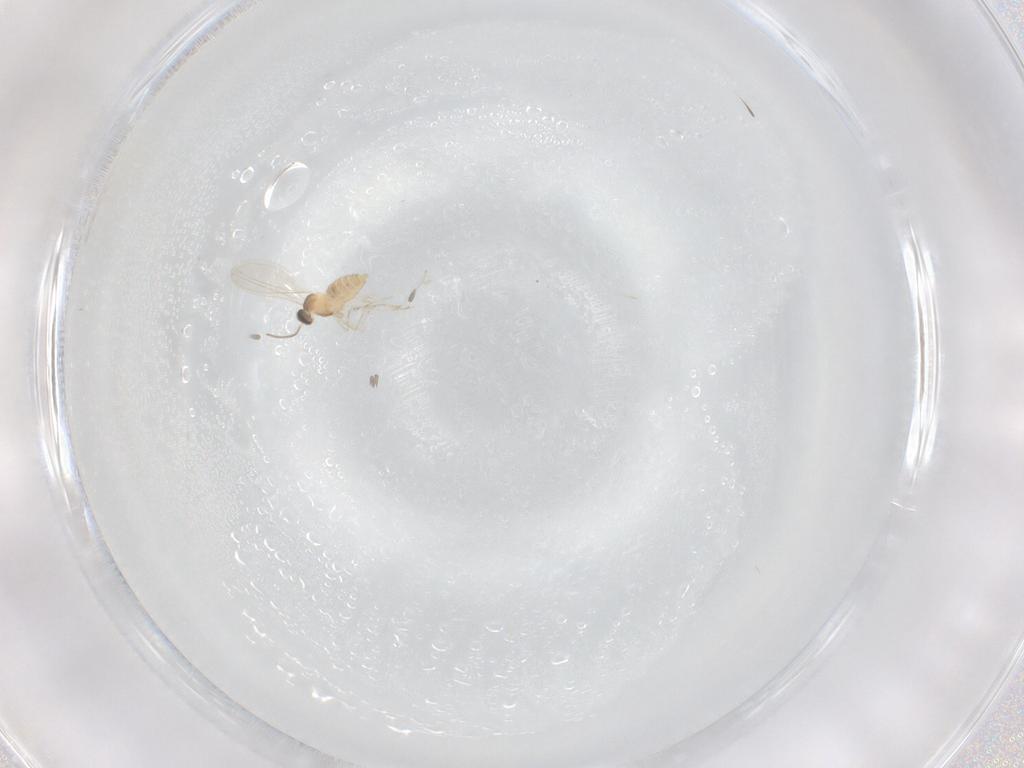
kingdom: Animalia
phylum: Arthropoda
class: Insecta
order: Diptera
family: Cecidomyiidae
